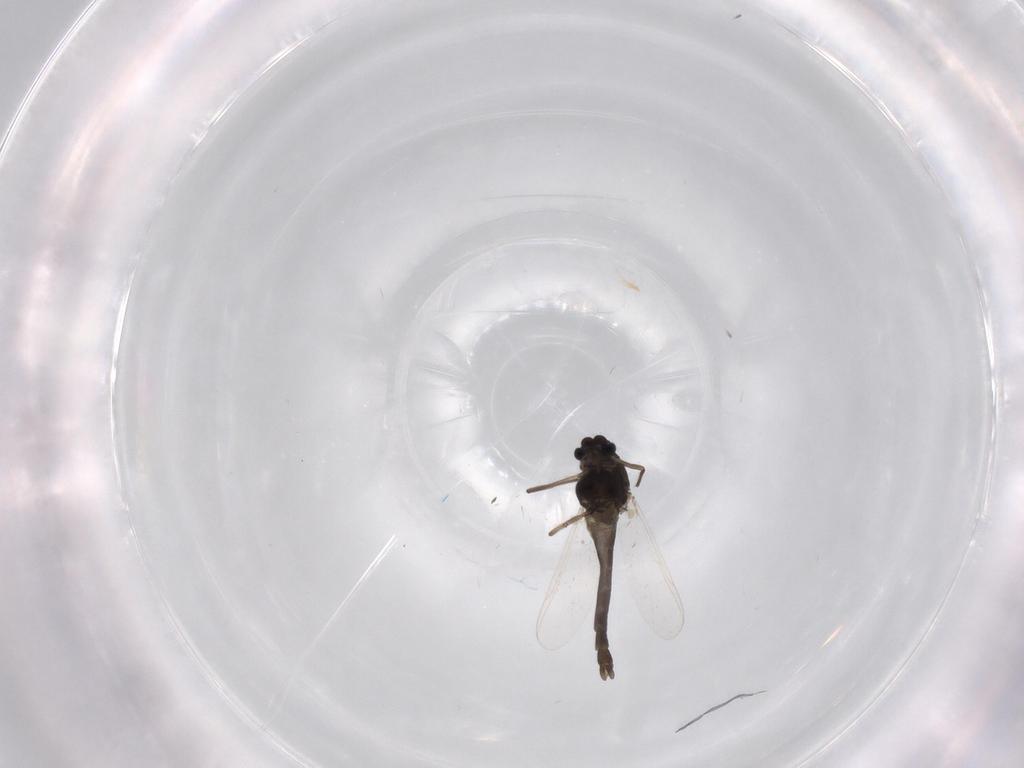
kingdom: Animalia
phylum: Arthropoda
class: Insecta
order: Diptera
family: Chironomidae
